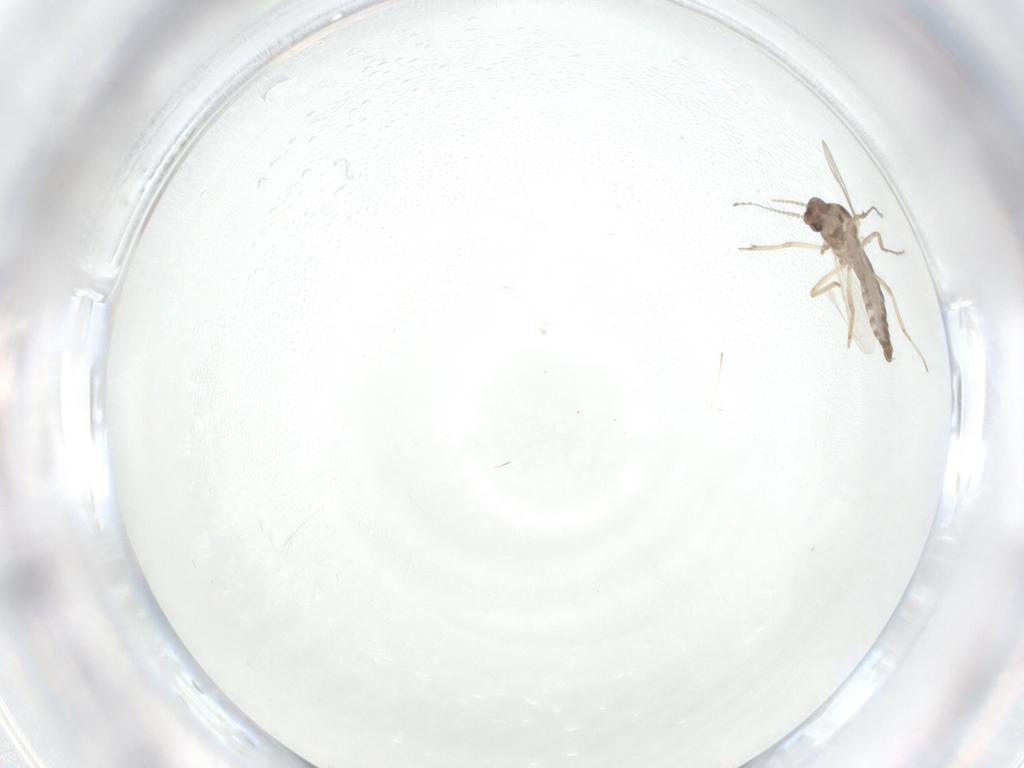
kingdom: Animalia
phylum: Arthropoda
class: Insecta
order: Diptera
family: Ceratopogonidae
